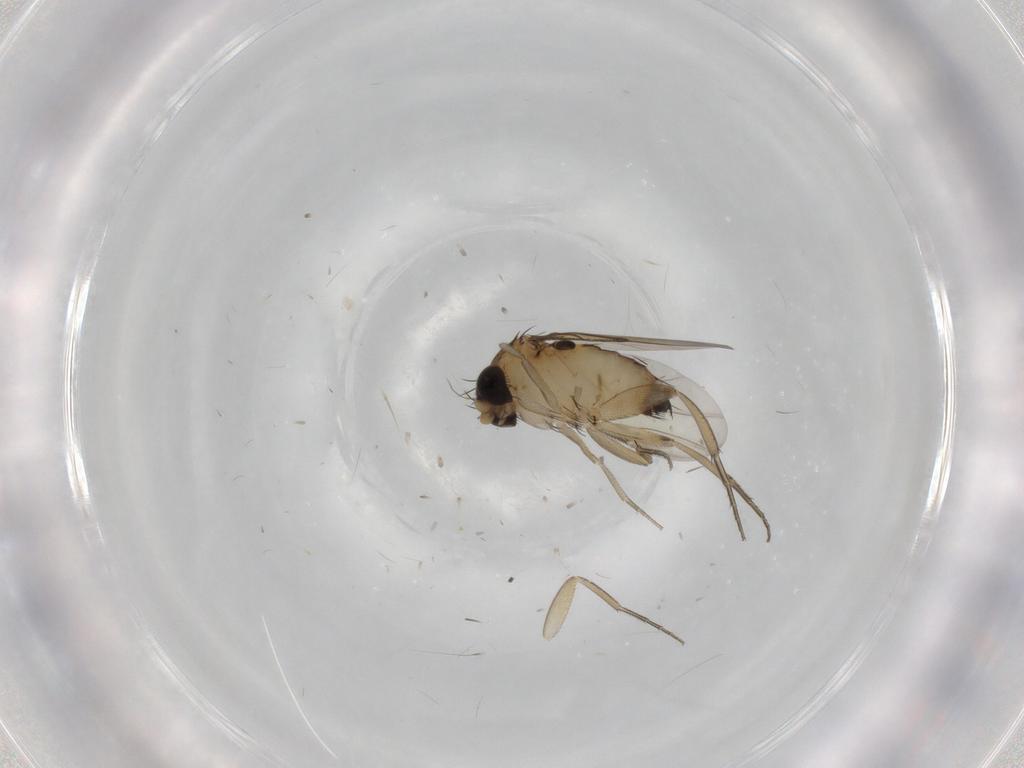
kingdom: Animalia
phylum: Arthropoda
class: Insecta
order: Diptera
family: Phoridae
